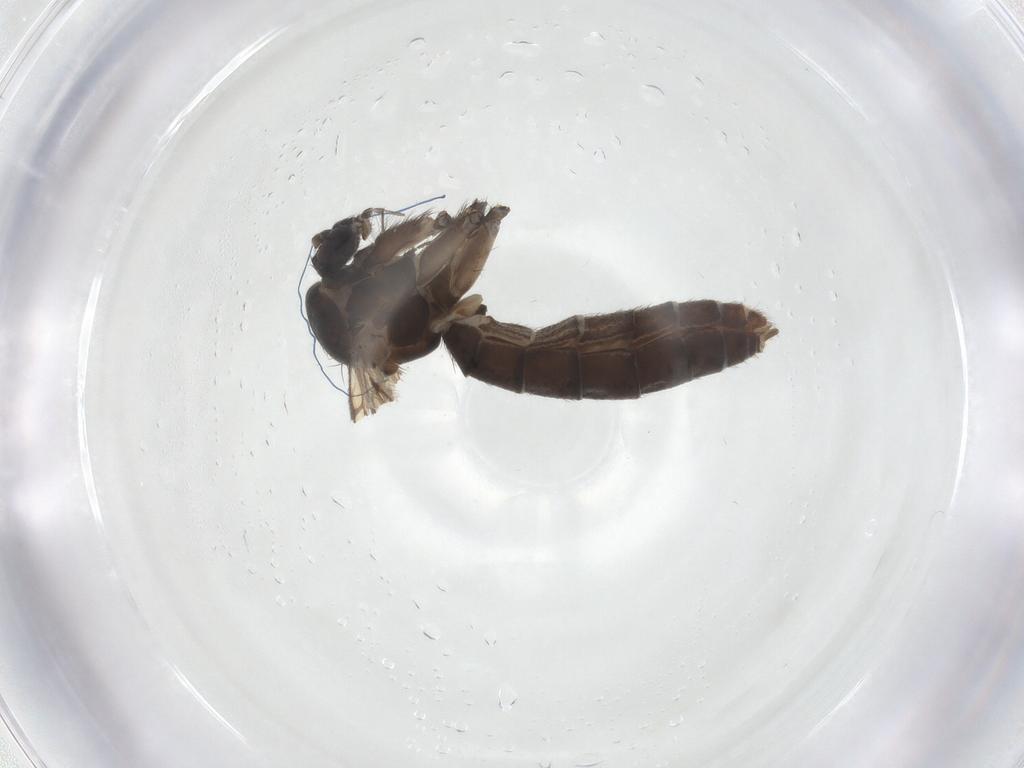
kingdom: Animalia
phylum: Arthropoda
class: Insecta
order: Diptera
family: Mycetophilidae
